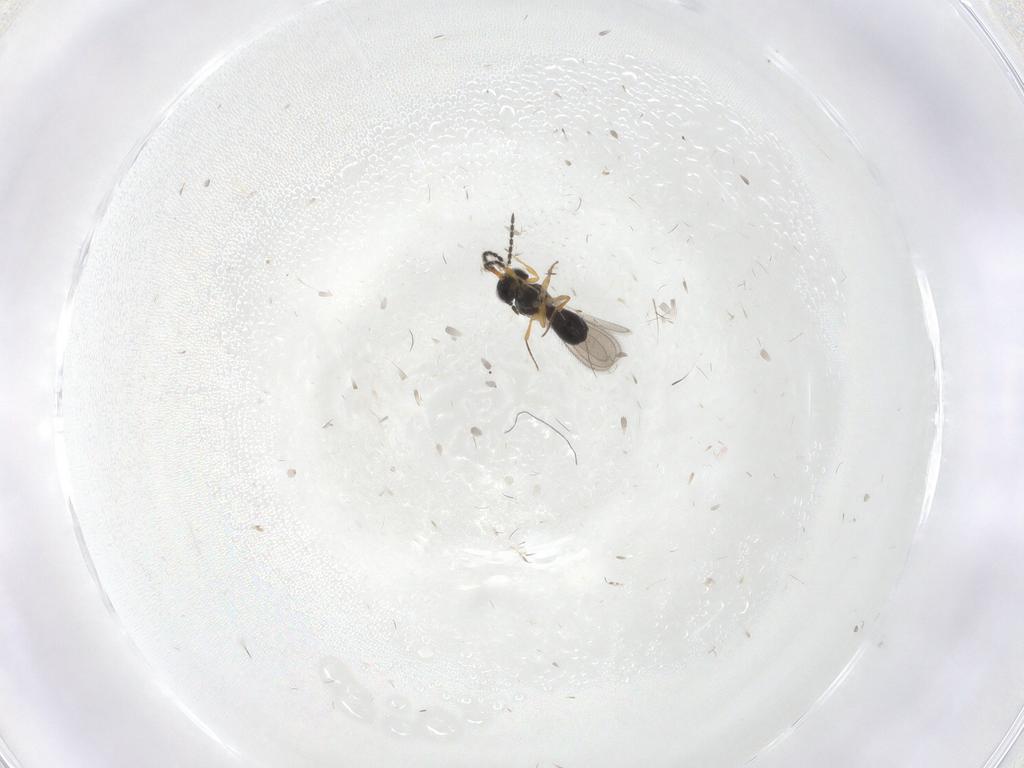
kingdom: Animalia
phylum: Arthropoda
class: Insecta
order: Hymenoptera
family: Scelionidae
